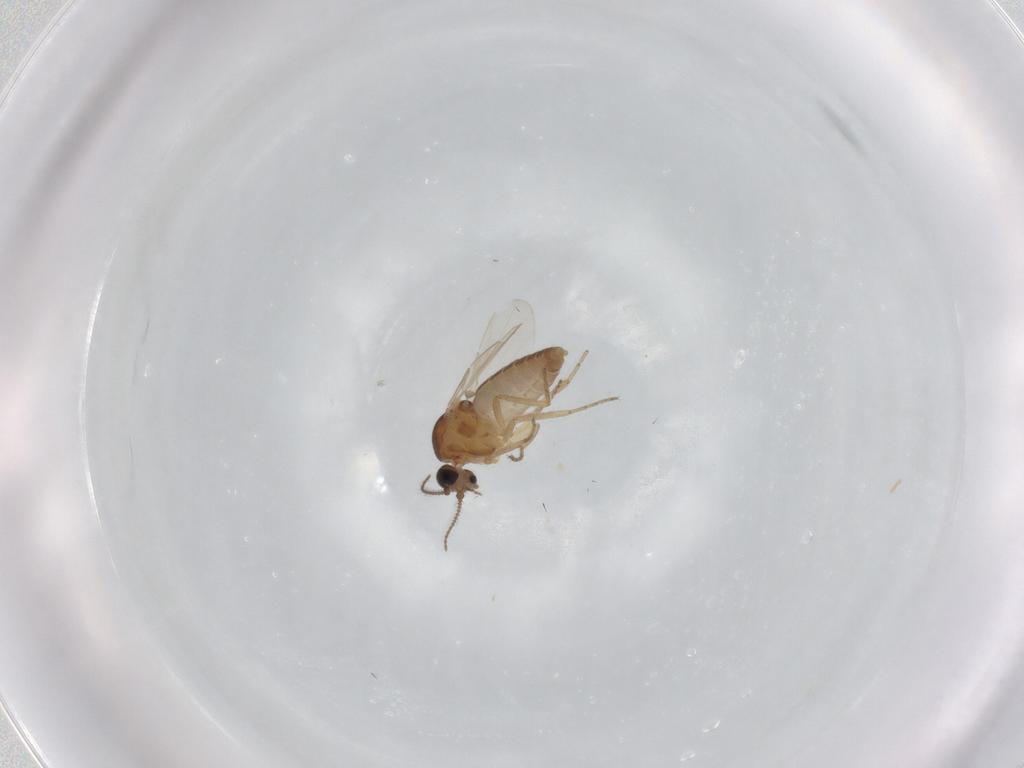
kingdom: Animalia
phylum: Arthropoda
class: Insecta
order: Diptera
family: Ceratopogonidae
